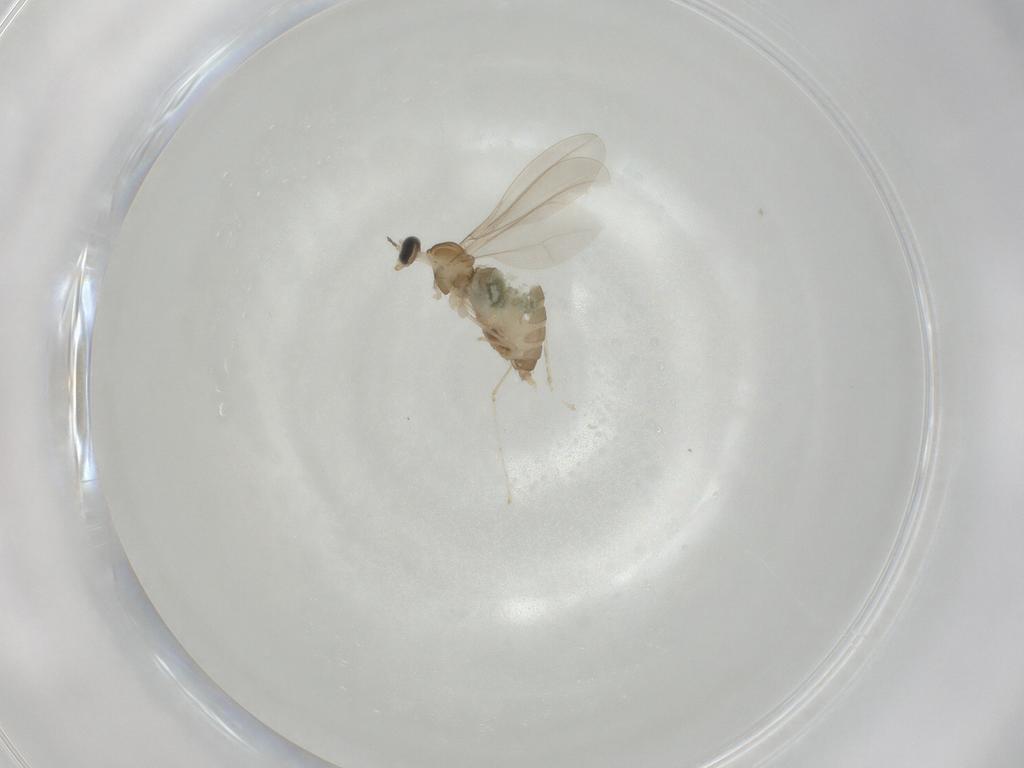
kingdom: Animalia
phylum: Arthropoda
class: Insecta
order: Diptera
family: Cecidomyiidae
